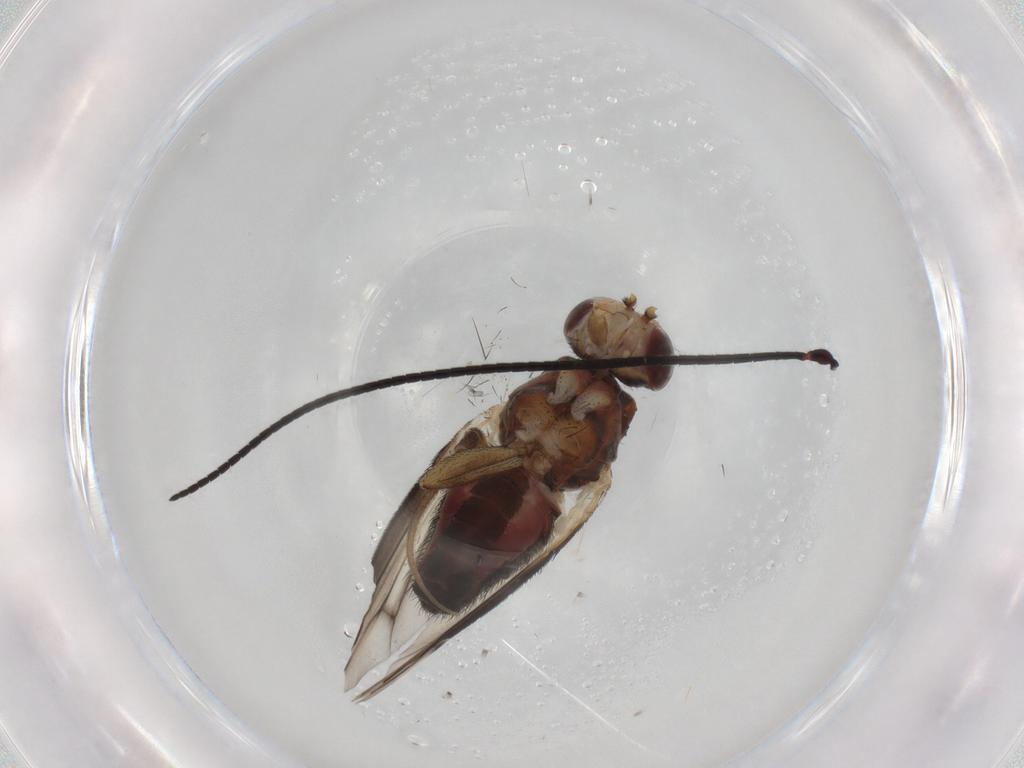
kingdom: Animalia
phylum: Arthropoda
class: Insecta
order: Diptera
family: Heleomyzidae
